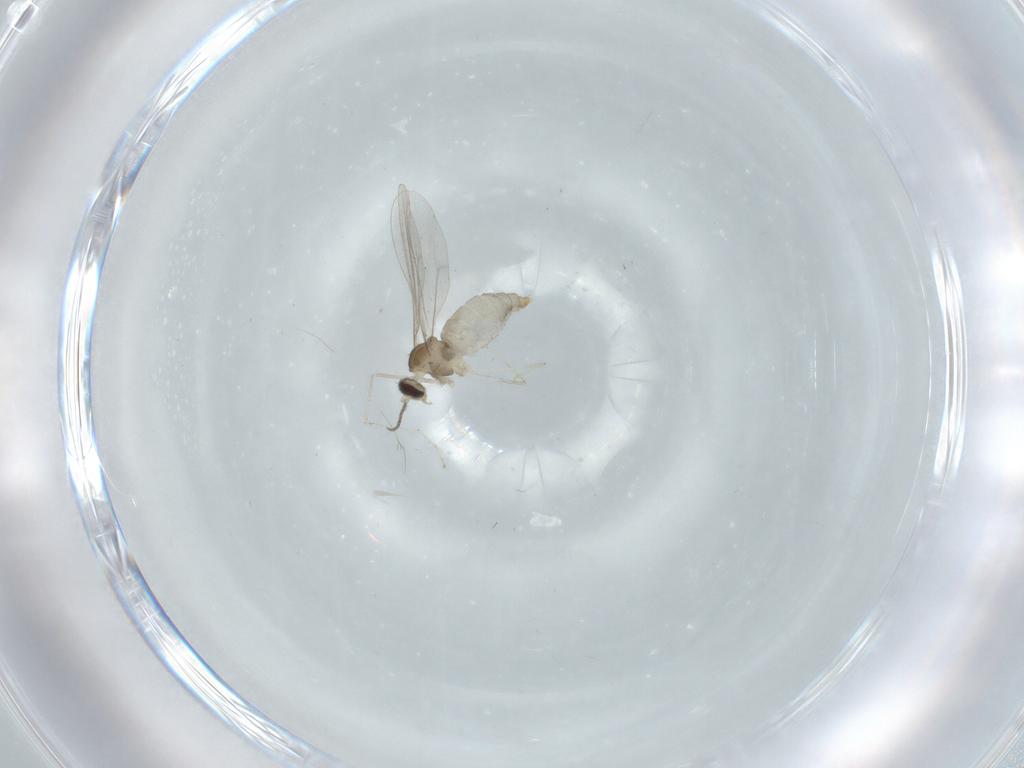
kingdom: Animalia
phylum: Arthropoda
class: Insecta
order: Diptera
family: Cecidomyiidae
